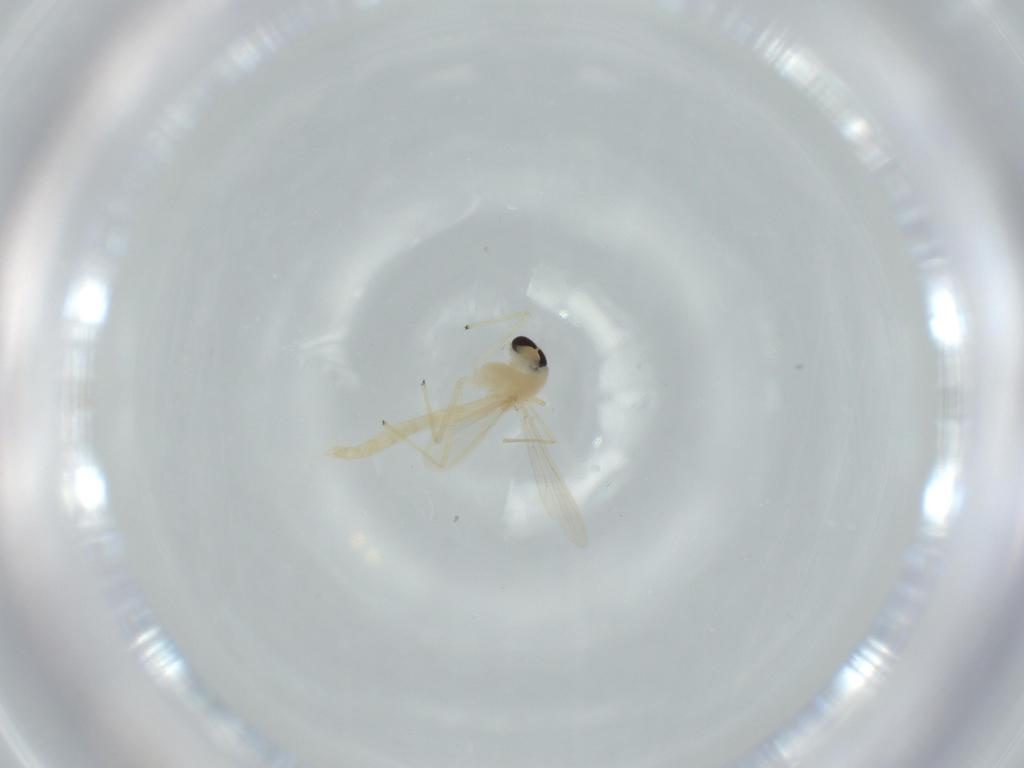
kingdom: Animalia
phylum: Arthropoda
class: Insecta
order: Diptera
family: Chironomidae
